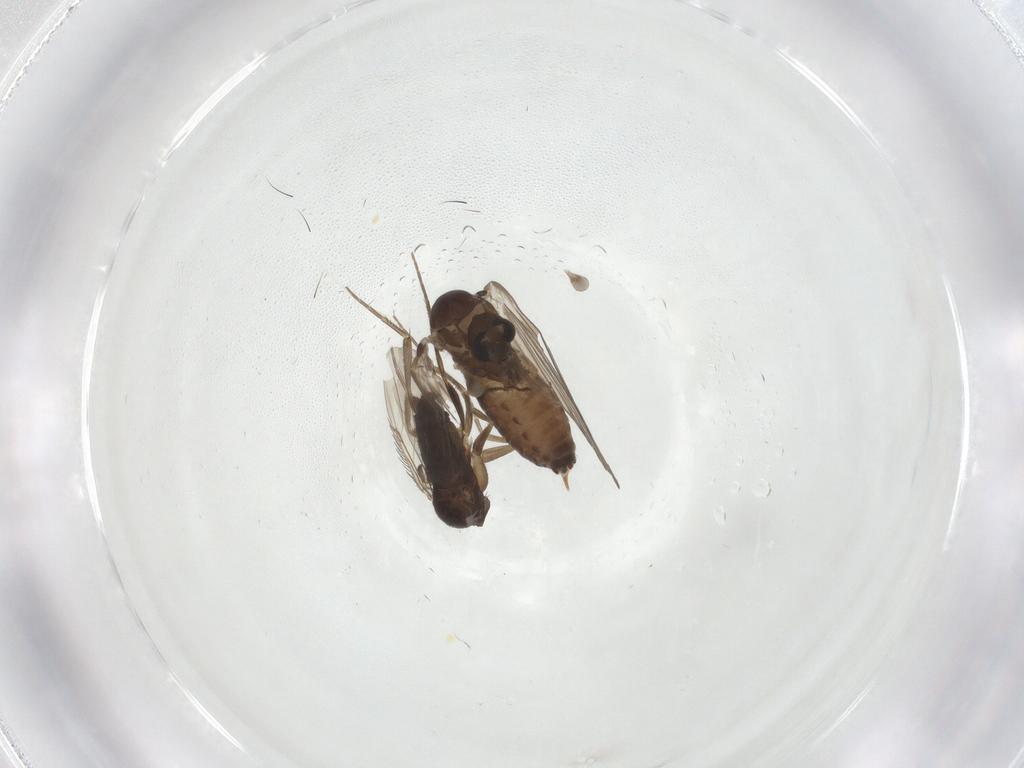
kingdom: Animalia
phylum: Arthropoda
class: Insecta
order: Diptera
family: Psychodidae
